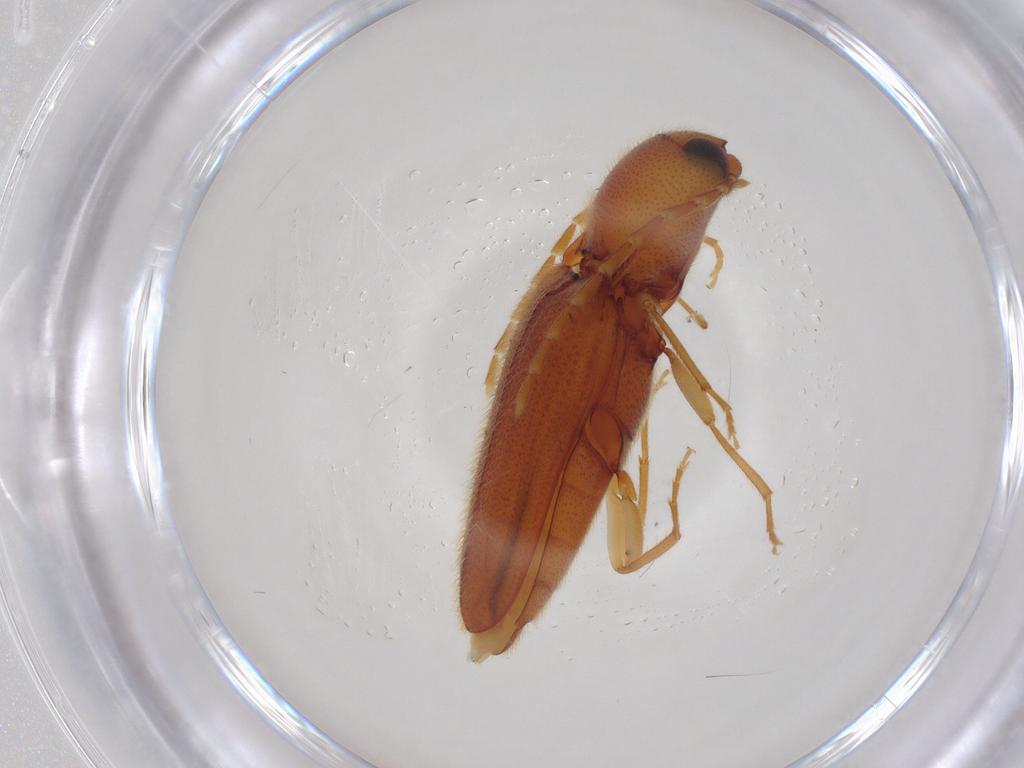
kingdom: Animalia
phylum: Arthropoda
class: Insecta
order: Coleoptera
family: Elateridae
